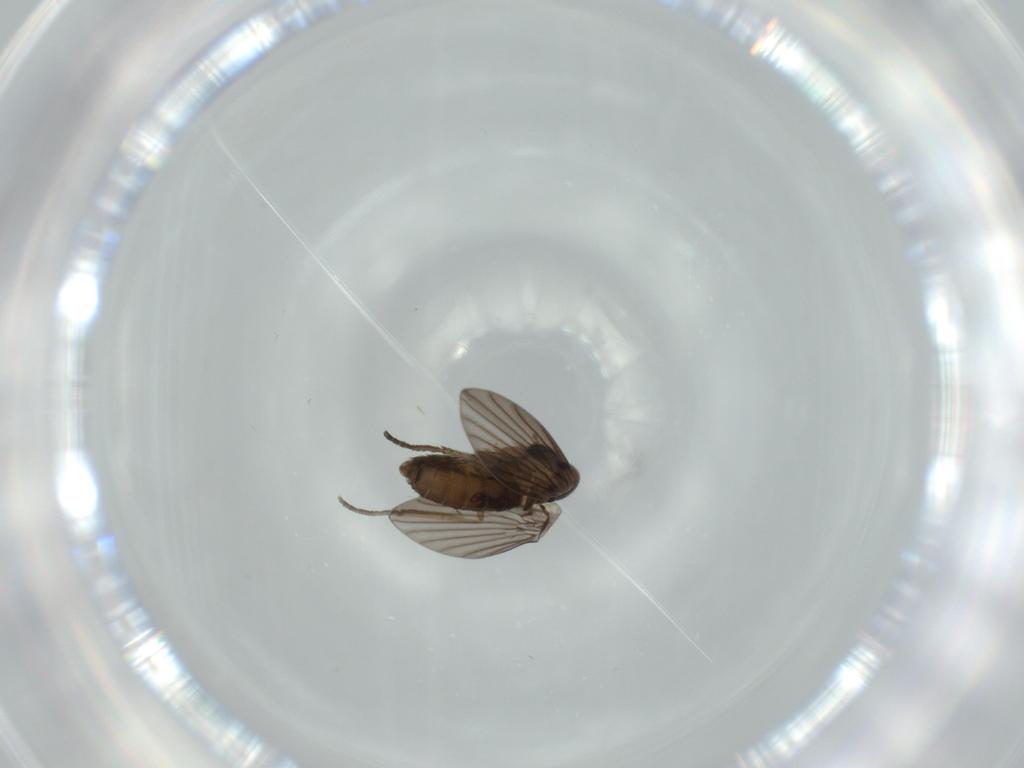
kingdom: Animalia
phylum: Arthropoda
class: Insecta
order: Diptera
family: Psychodidae
